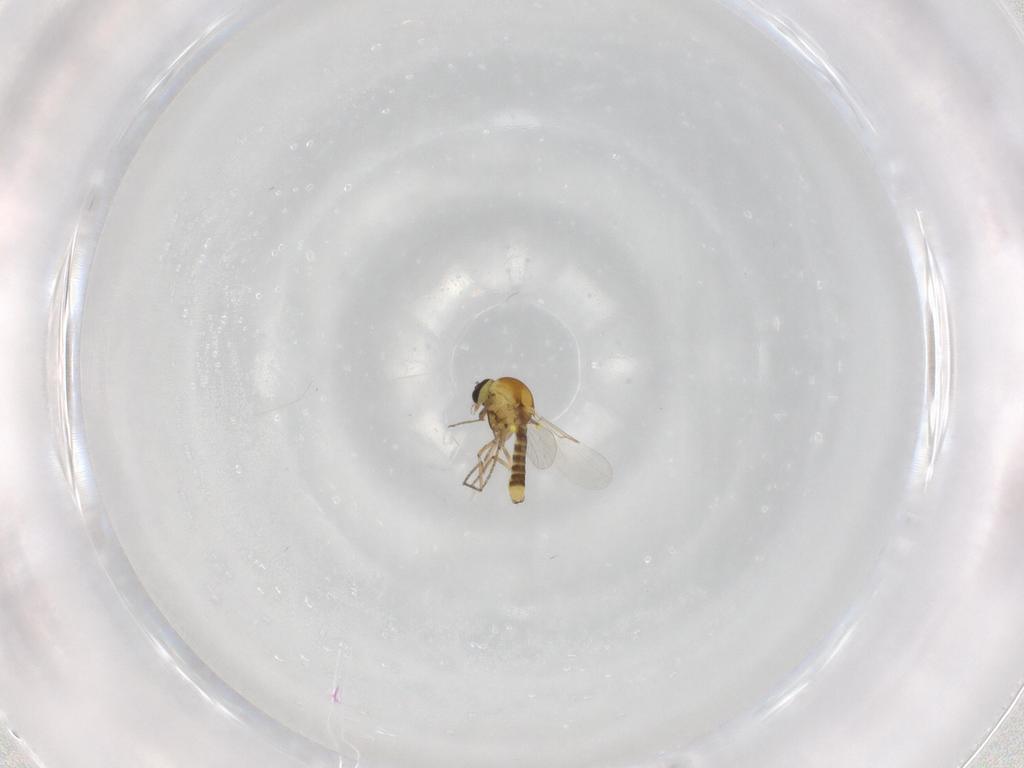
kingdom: Animalia
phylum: Arthropoda
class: Insecta
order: Diptera
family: Ceratopogonidae
